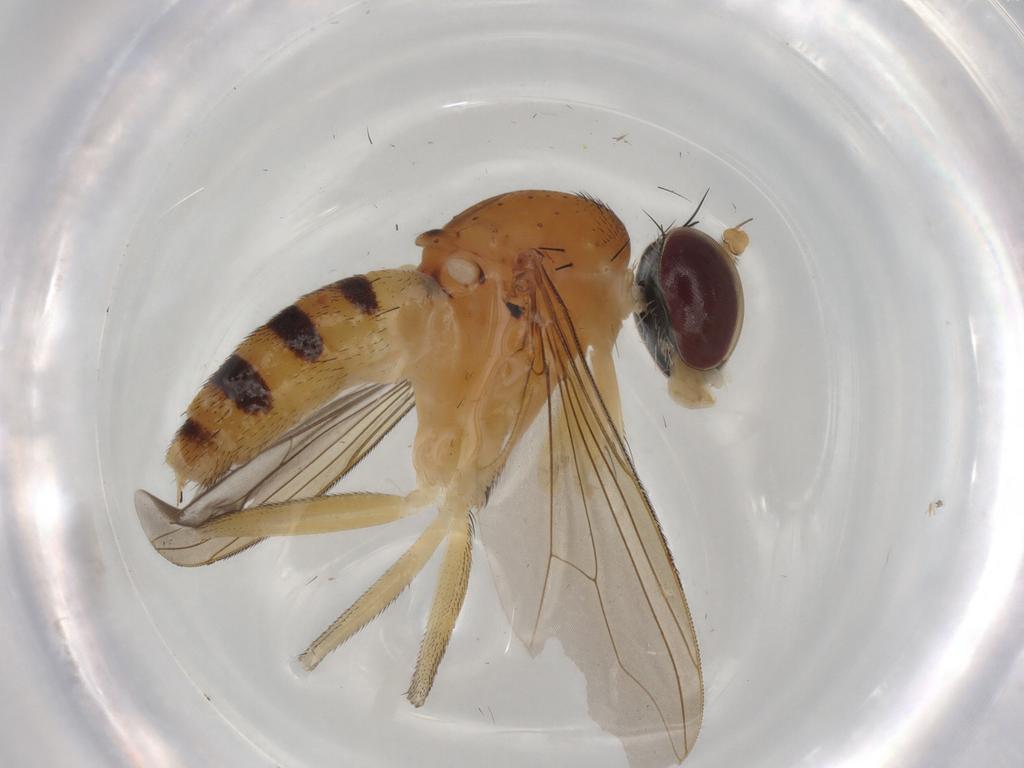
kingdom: Animalia
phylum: Arthropoda
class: Insecta
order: Diptera
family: Dolichopodidae
